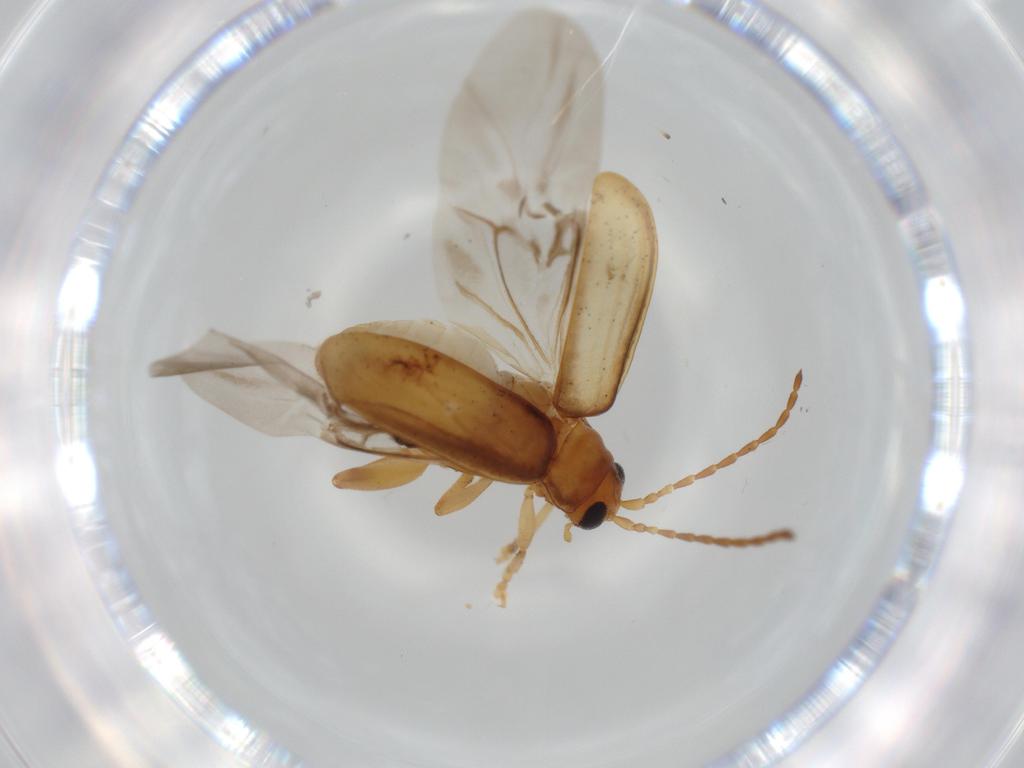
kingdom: Animalia
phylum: Arthropoda
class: Insecta
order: Coleoptera
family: Chrysomelidae
